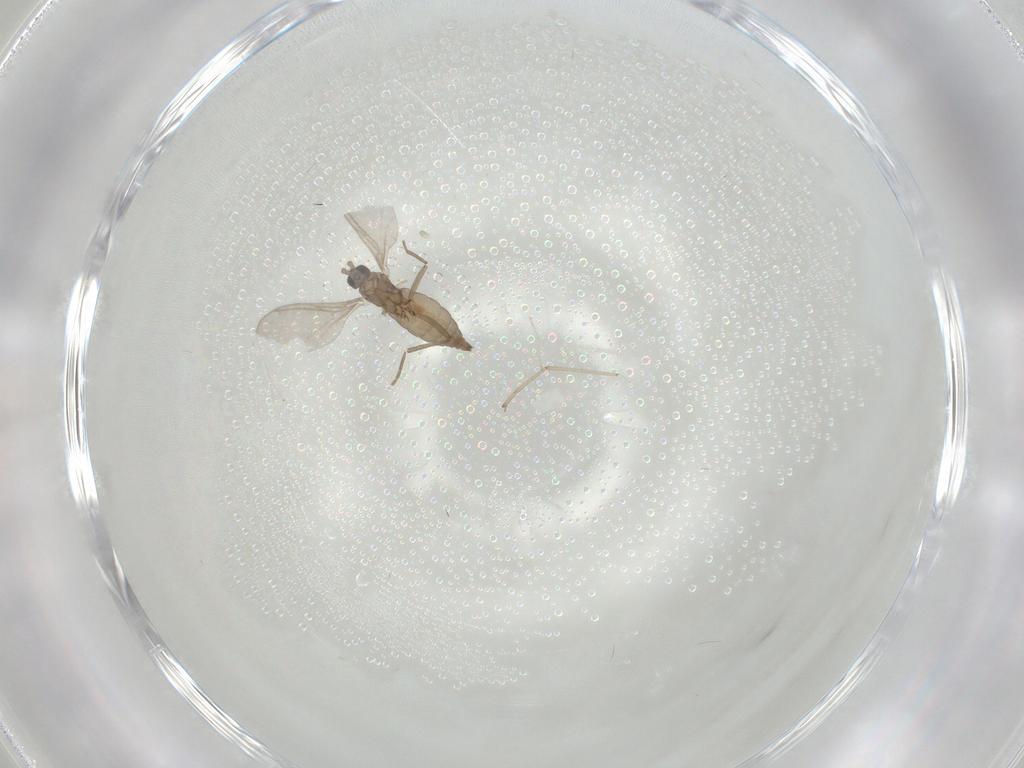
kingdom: Animalia
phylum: Arthropoda
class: Insecta
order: Diptera
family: Cecidomyiidae
